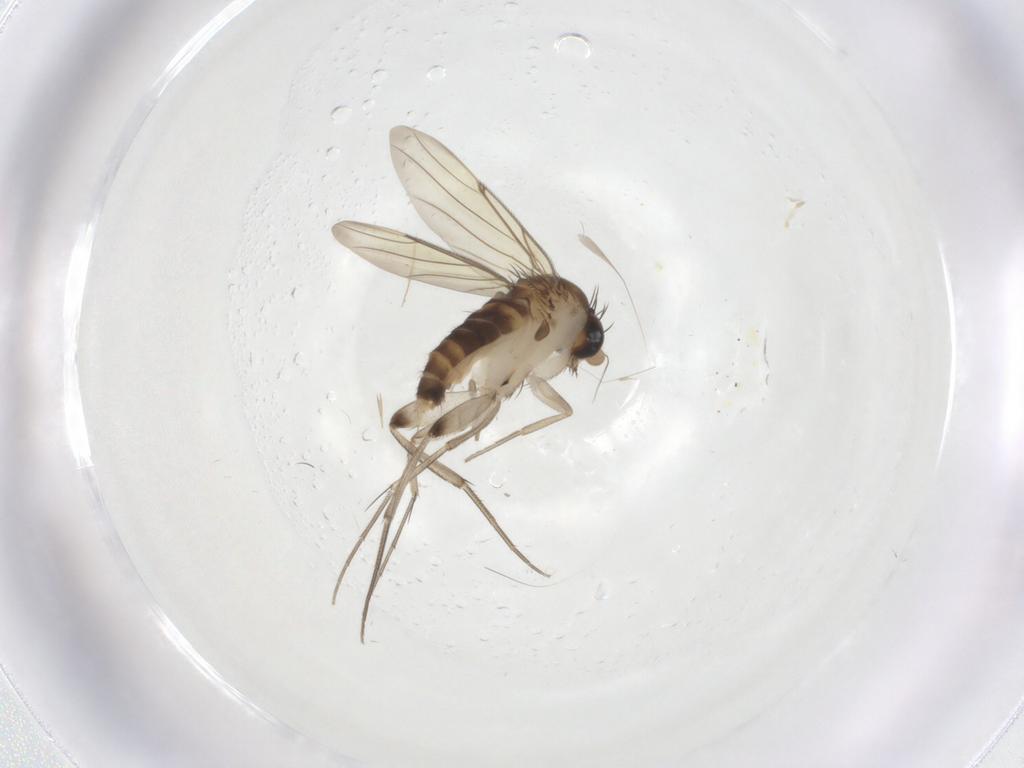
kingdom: Animalia
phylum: Arthropoda
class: Insecta
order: Diptera
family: Phoridae
